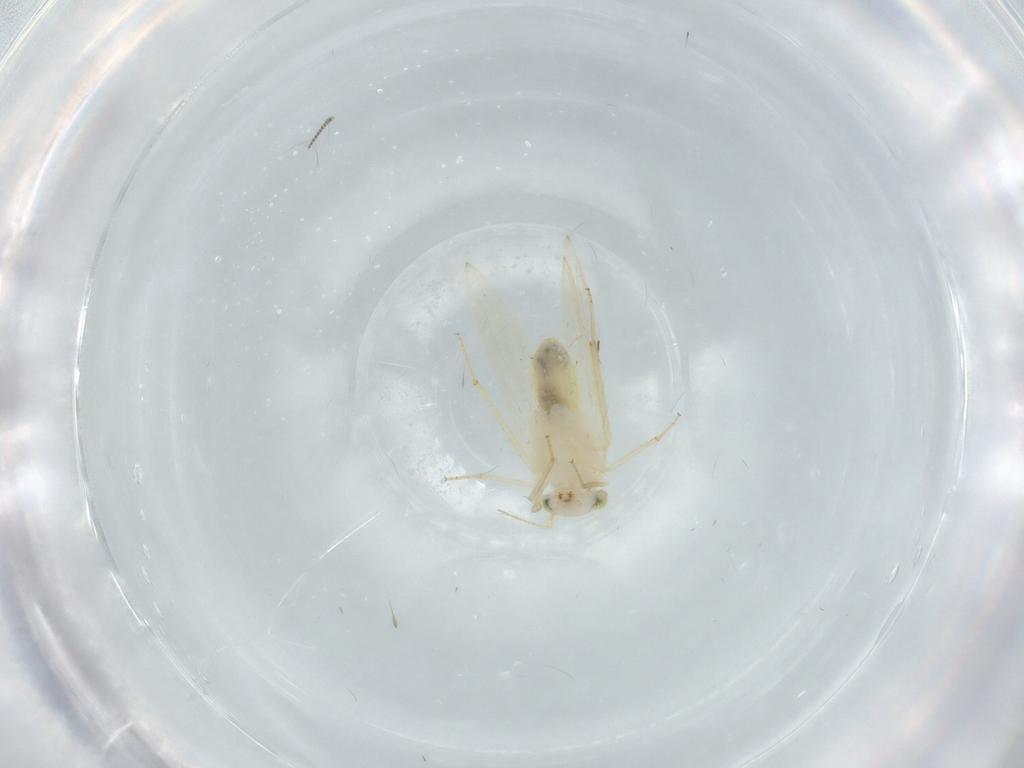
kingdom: Animalia
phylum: Arthropoda
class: Insecta
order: Psocodea
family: Lepidopsocidae
